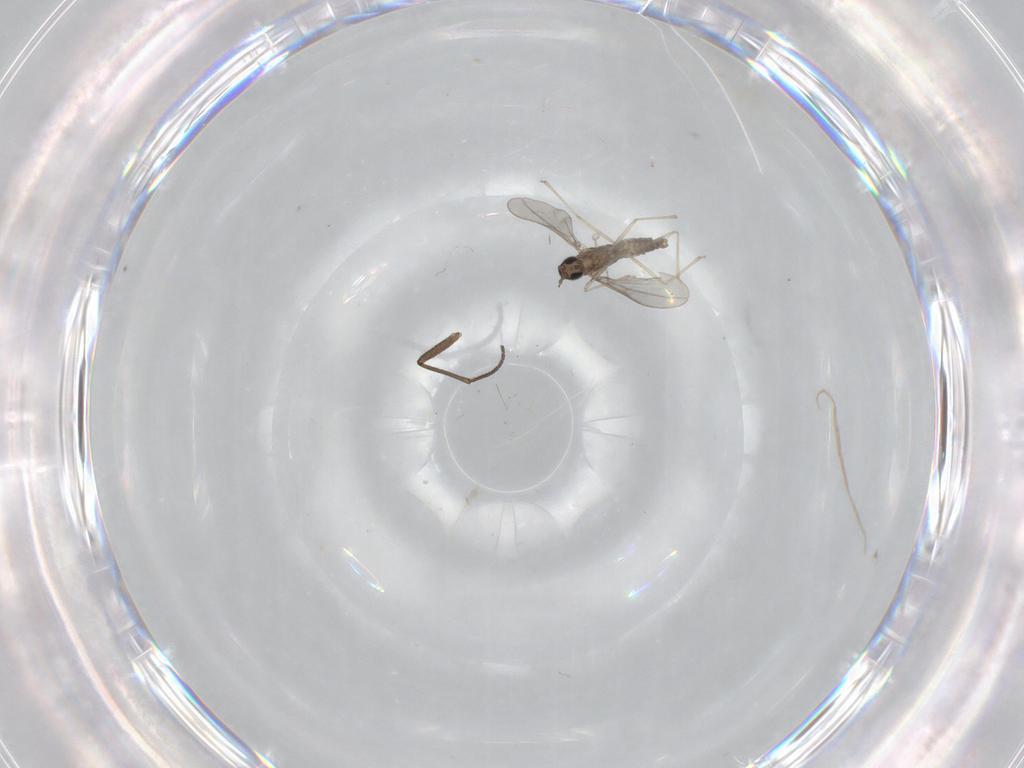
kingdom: Animalia
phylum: Arthropoda
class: Insecta
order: Diptera
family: Cecidomyiidae
